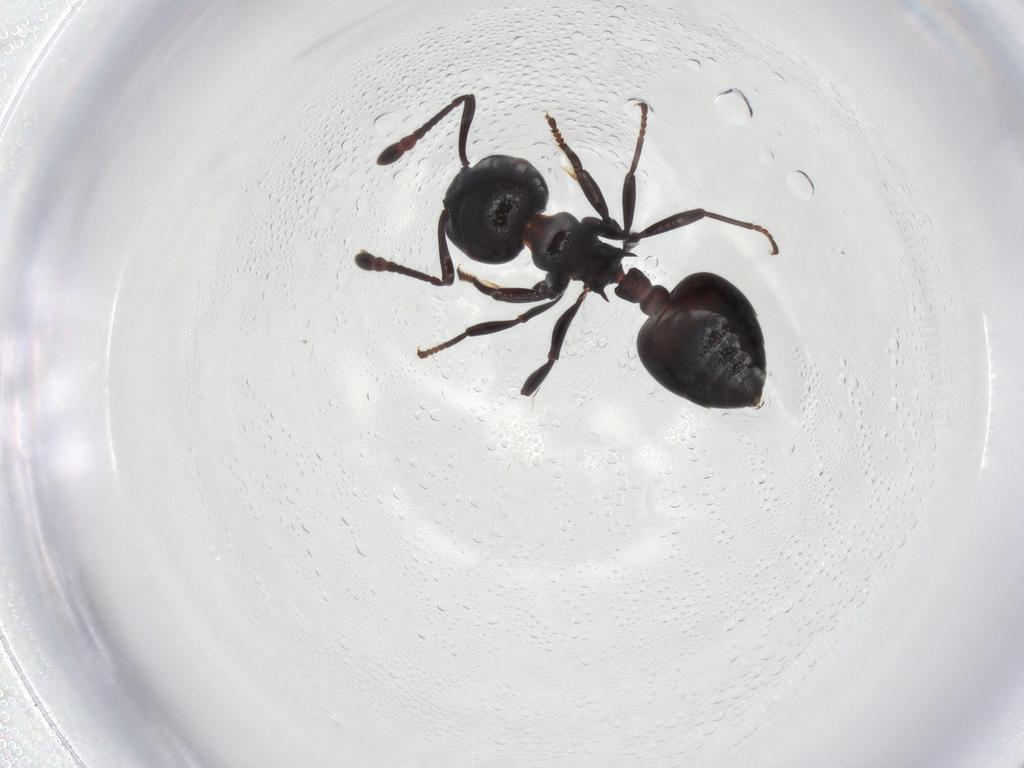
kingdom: Animalia
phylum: Arthropoda
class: Insecta
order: Hymenoptera
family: Formicidae
